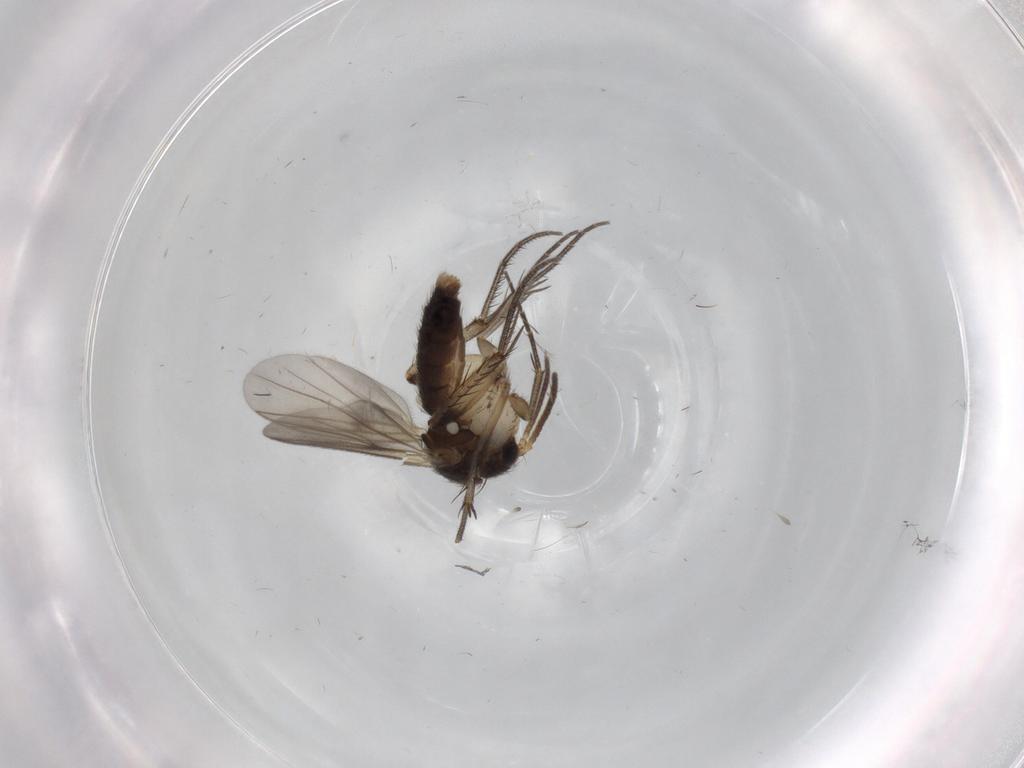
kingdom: Animalia
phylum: Arthropoda
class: Insecta
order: Diptera
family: Mycetophilidae
